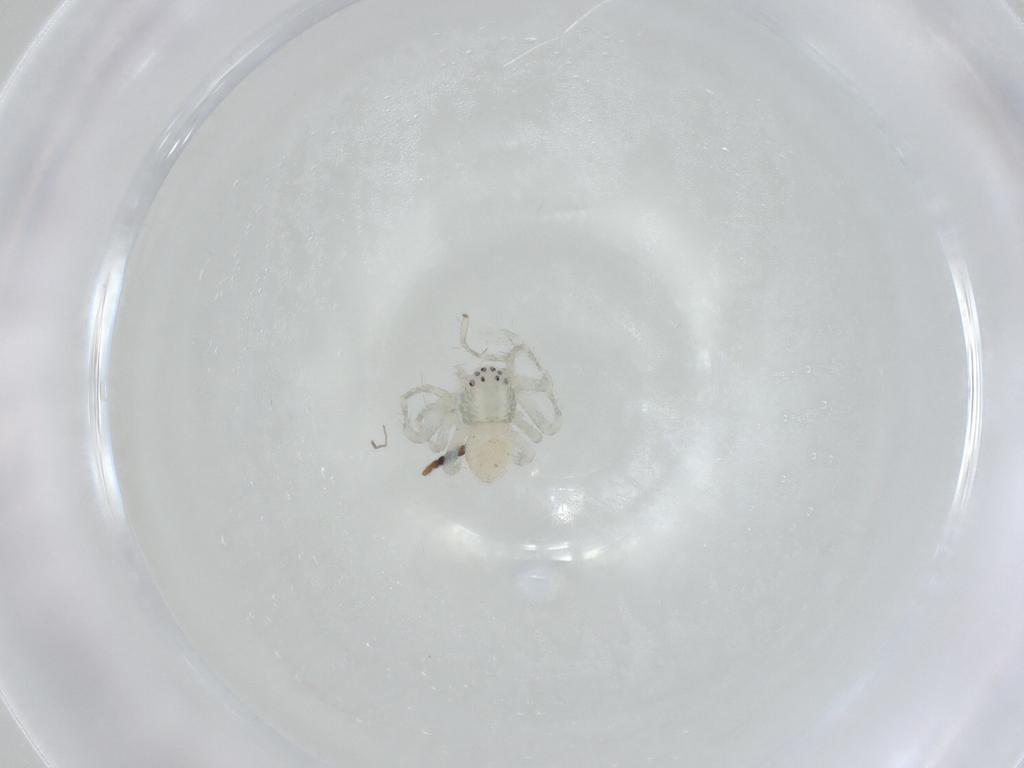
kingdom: Animalia
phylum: Arthropoda
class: Arachnida
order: Araneae
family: Philodromidae
